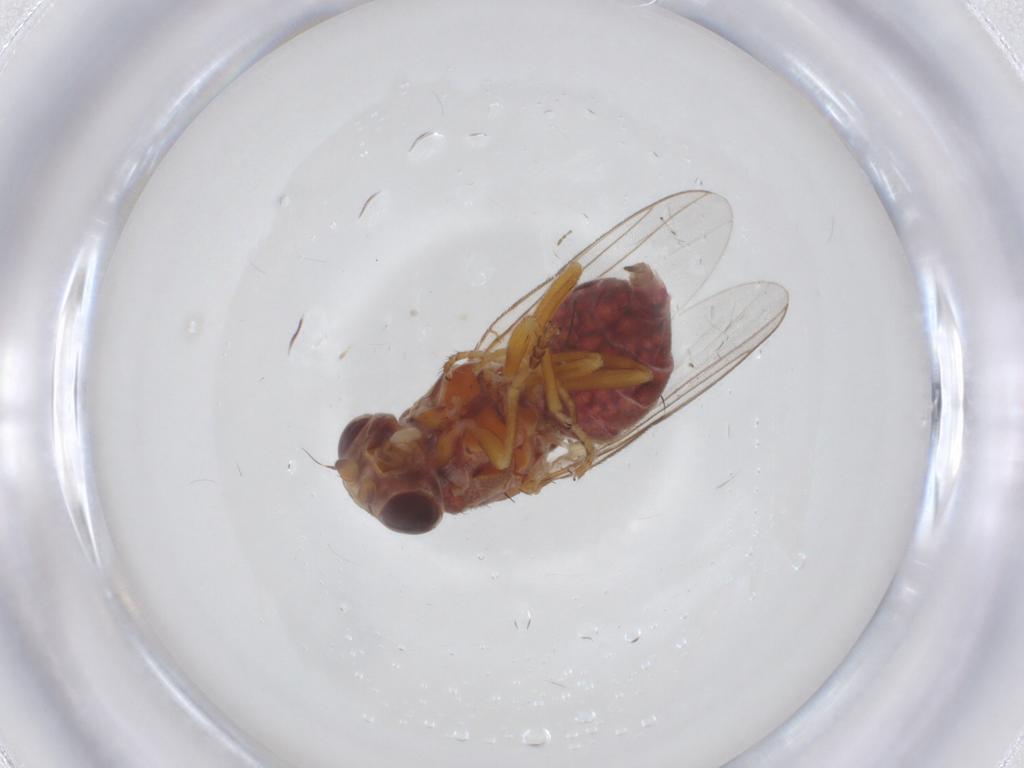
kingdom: Animalia
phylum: Arthropoda
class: Insecta
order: Diptera
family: Chloropidae
